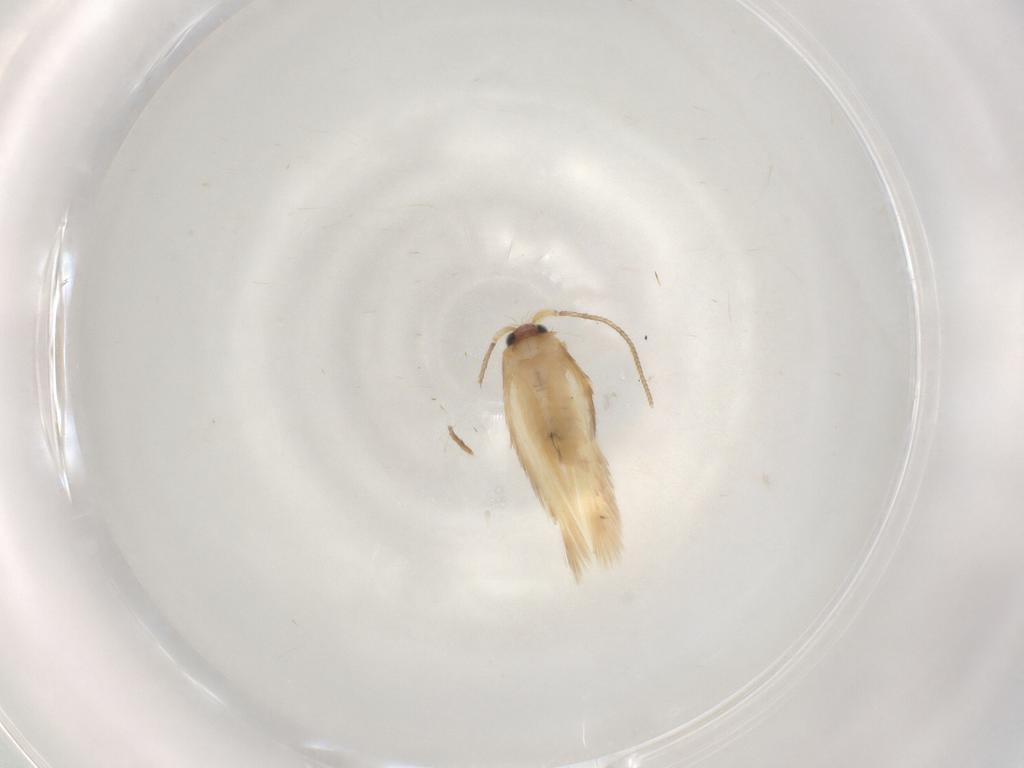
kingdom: Animalia
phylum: Arthropoda
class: Insecta
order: Lepidoptera
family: Nepticulidae
